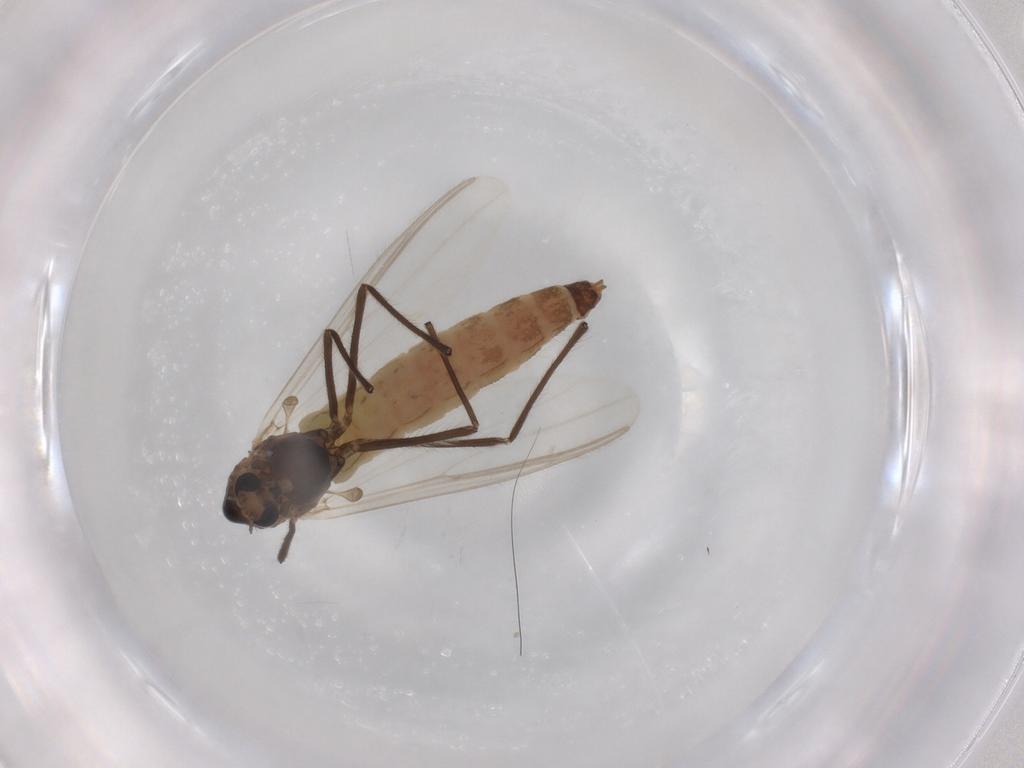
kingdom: Animalia
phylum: Arthropoda
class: Insecta
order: Diptera
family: Chironomidae
